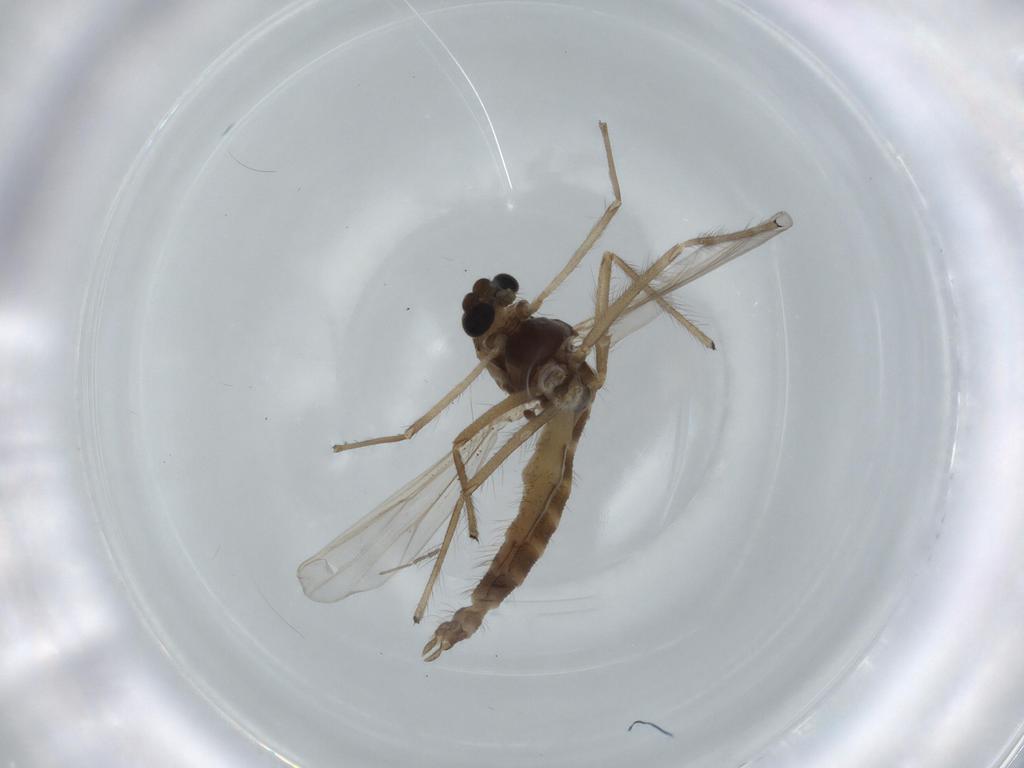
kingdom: Animalia
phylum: Arthropoda
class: Insecta
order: Diptera
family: Chironomidae
